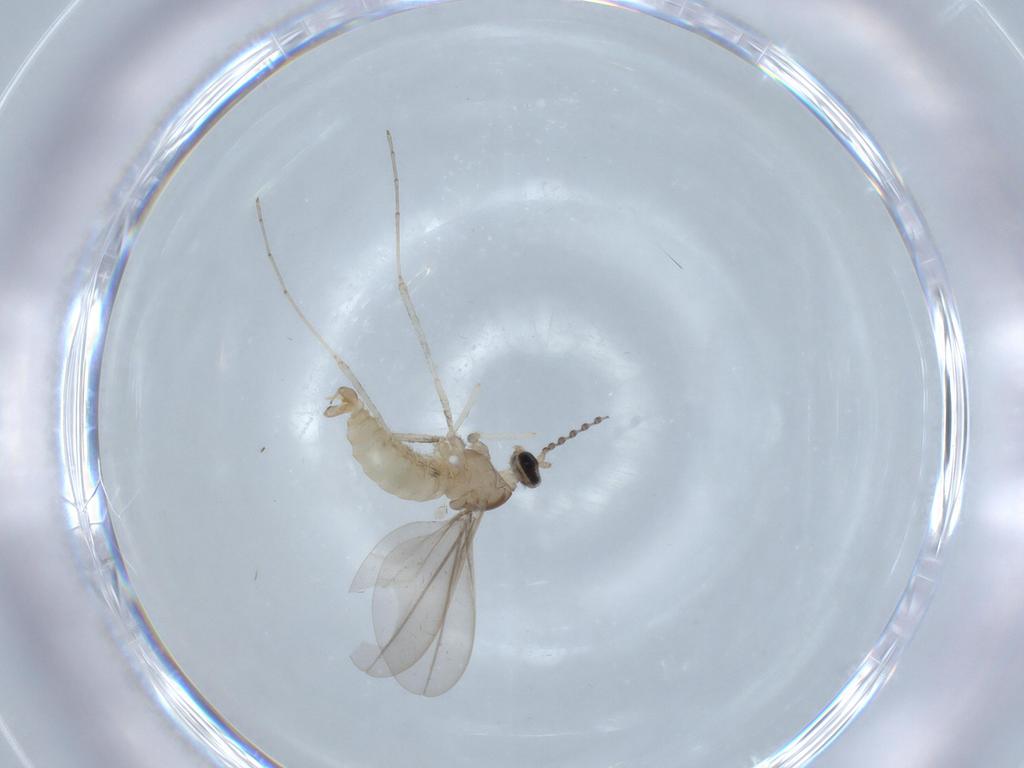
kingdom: Animalia
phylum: Arthropoda
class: Insecta
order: Diptera
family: Cecidomyiidae
